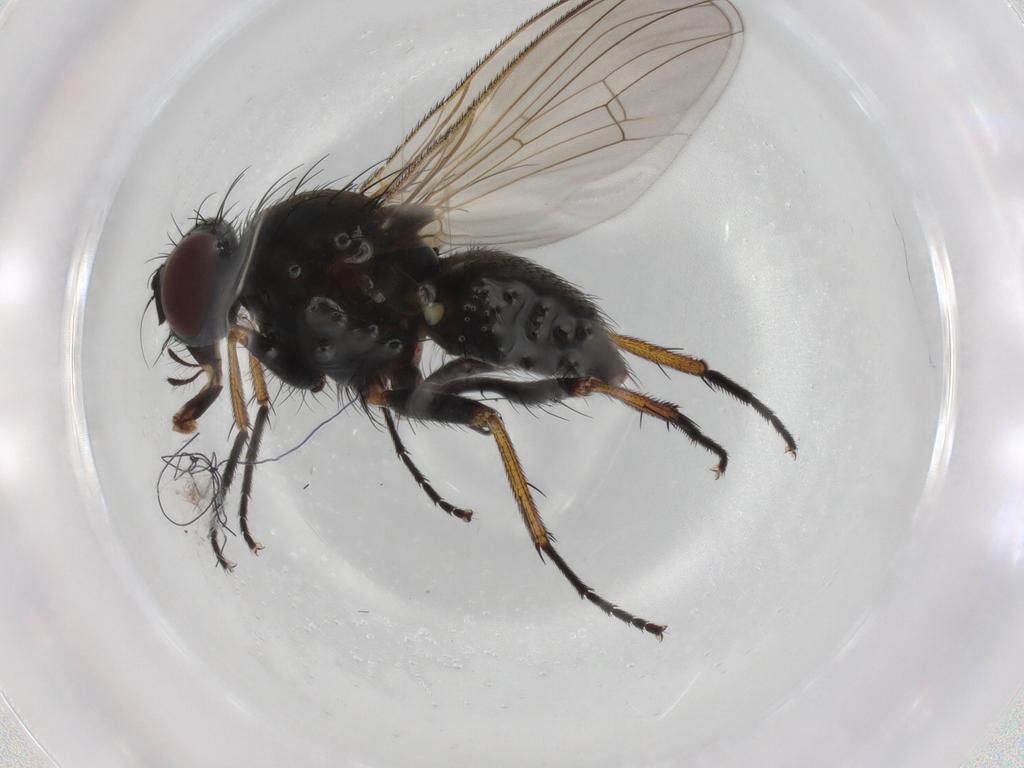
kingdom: Animalia
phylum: Arthropoda
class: Insecta
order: Diptera
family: Muscidae
